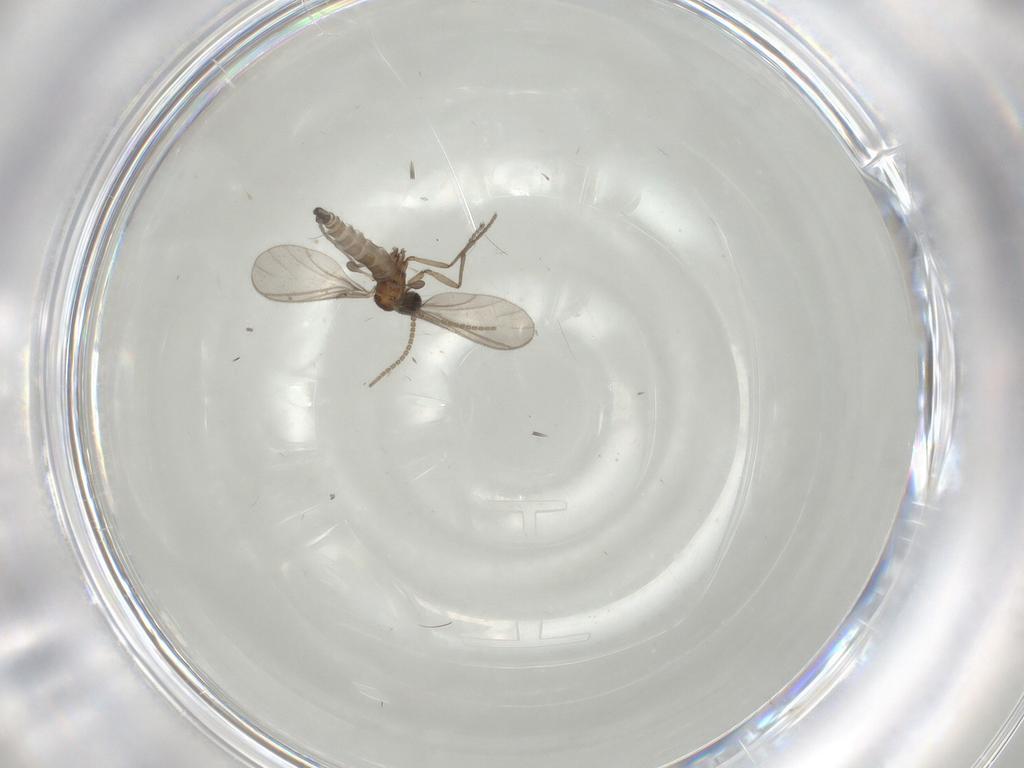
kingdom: Animalia
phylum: Arthropoda
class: Insecta
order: Diptera
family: Sciaridae
